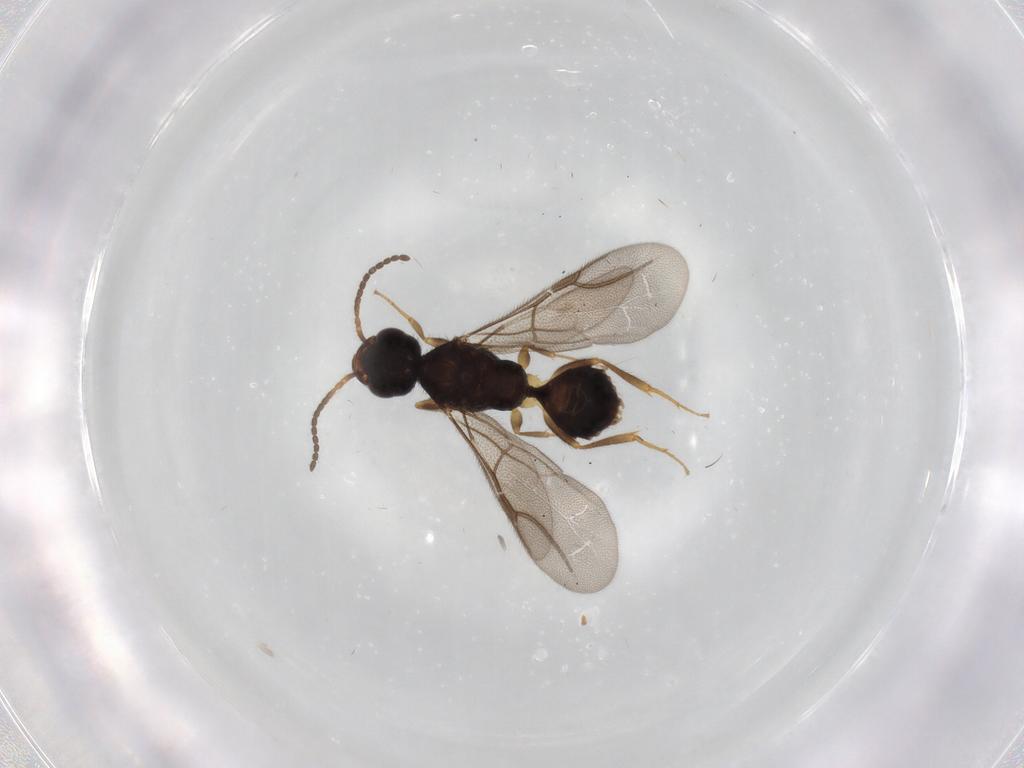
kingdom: Animalia
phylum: Arthropoda
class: Insecta
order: Hymenoptera
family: Bethylidae
